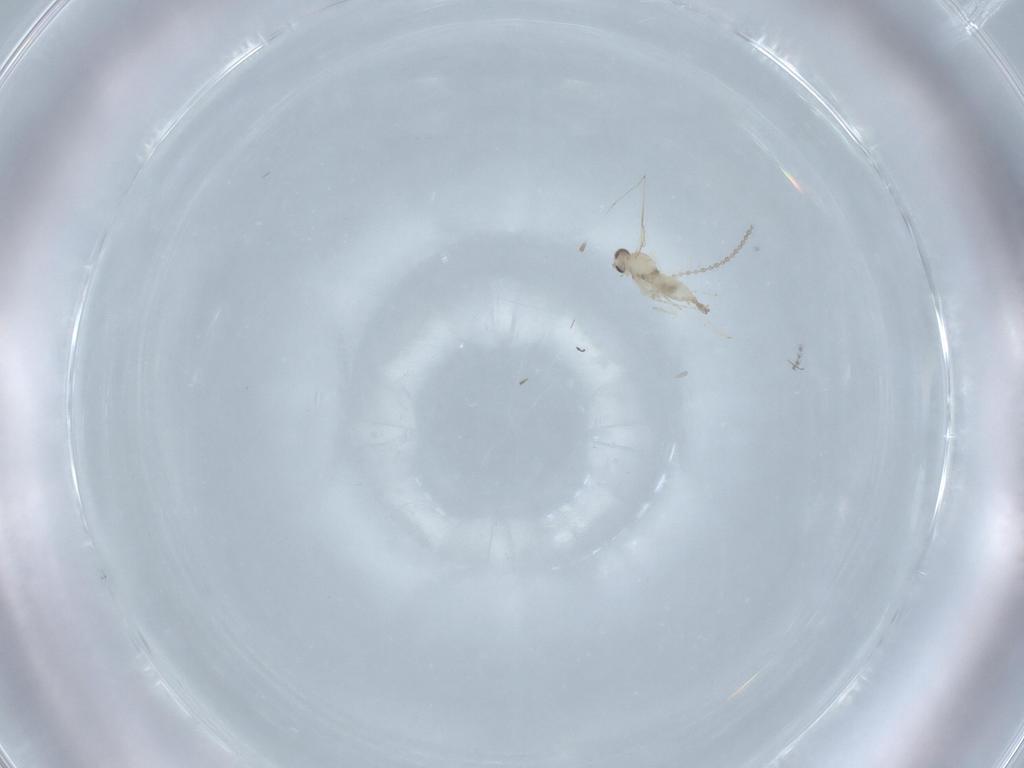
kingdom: Animalia
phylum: Arthropoda
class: Insecta
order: Diptera
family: Cecidomyiidae
